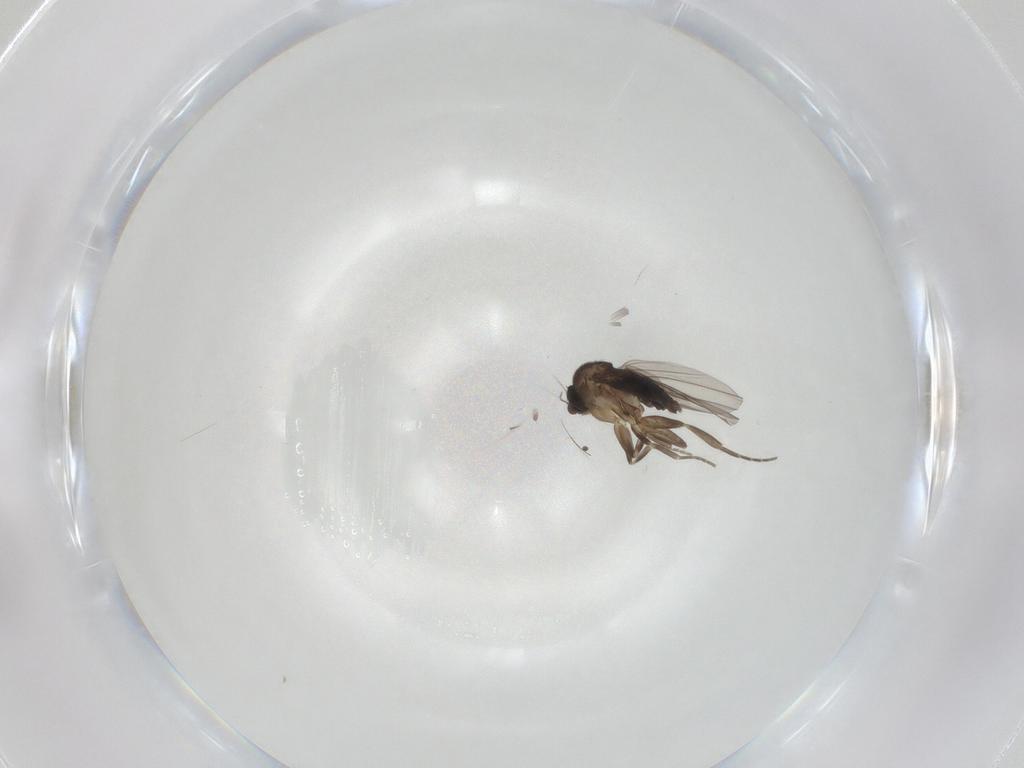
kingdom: Animalia
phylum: Arthropoda
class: Insecta
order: Diptera
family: Phoridae
